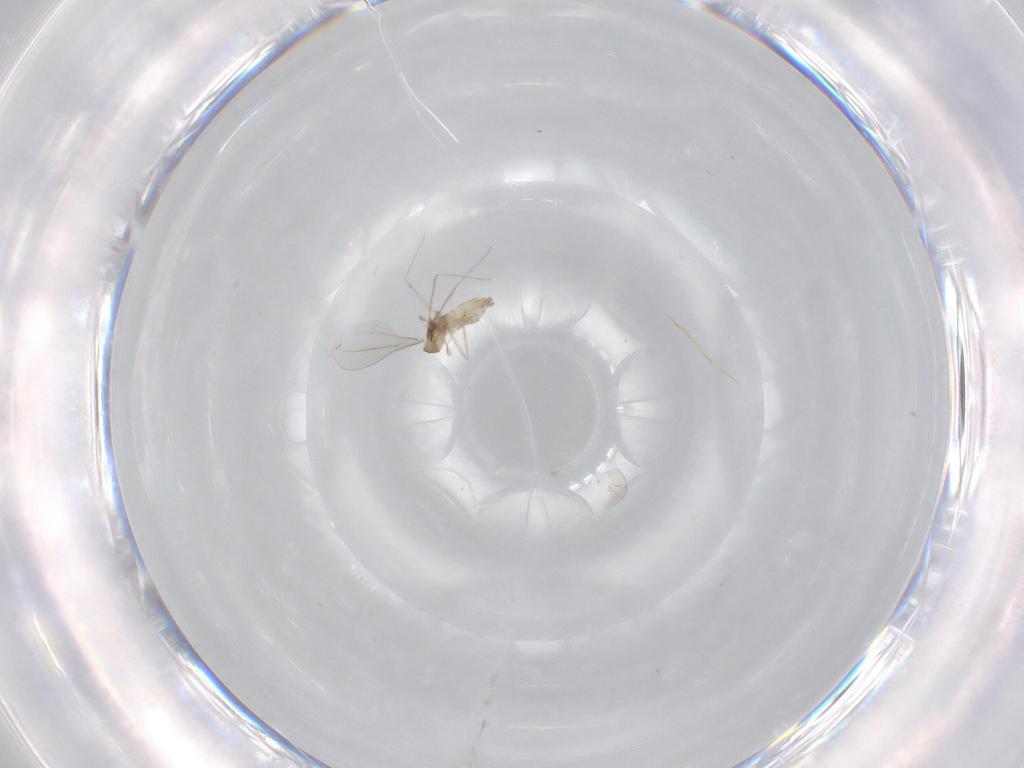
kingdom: Animalia
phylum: Arthropoda
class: Insecta
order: Diptera
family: Cecidomyiidae
